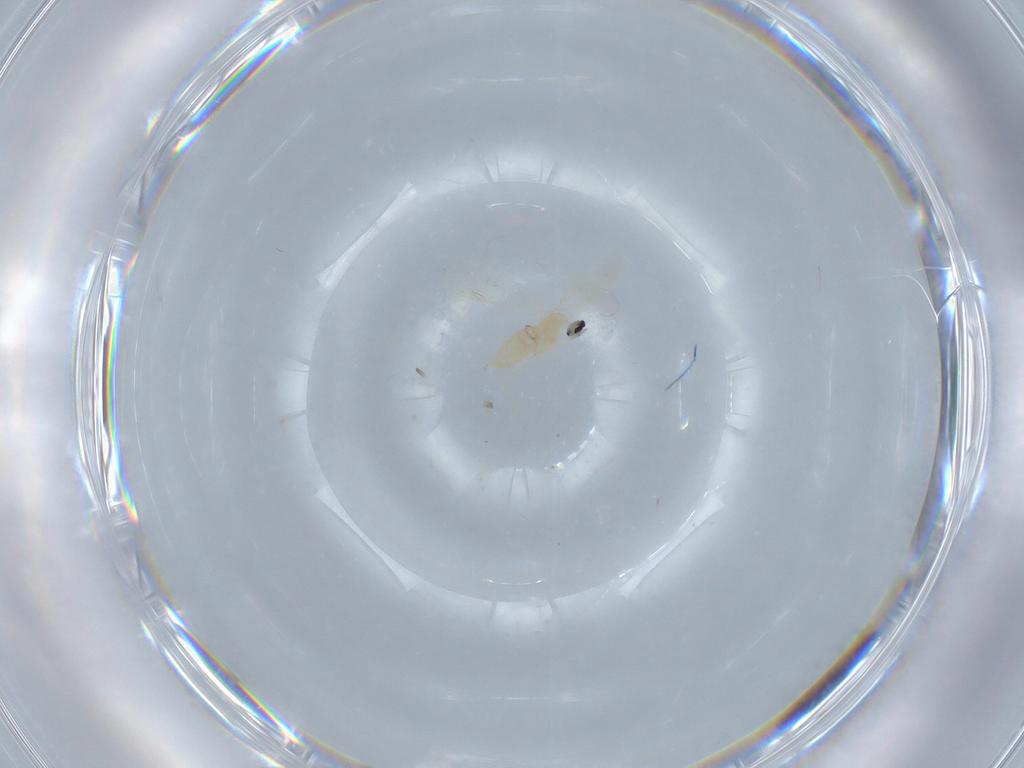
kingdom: Animalia
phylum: Arthropoda
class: Insecta
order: Diptera
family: Cecidomyiidae
